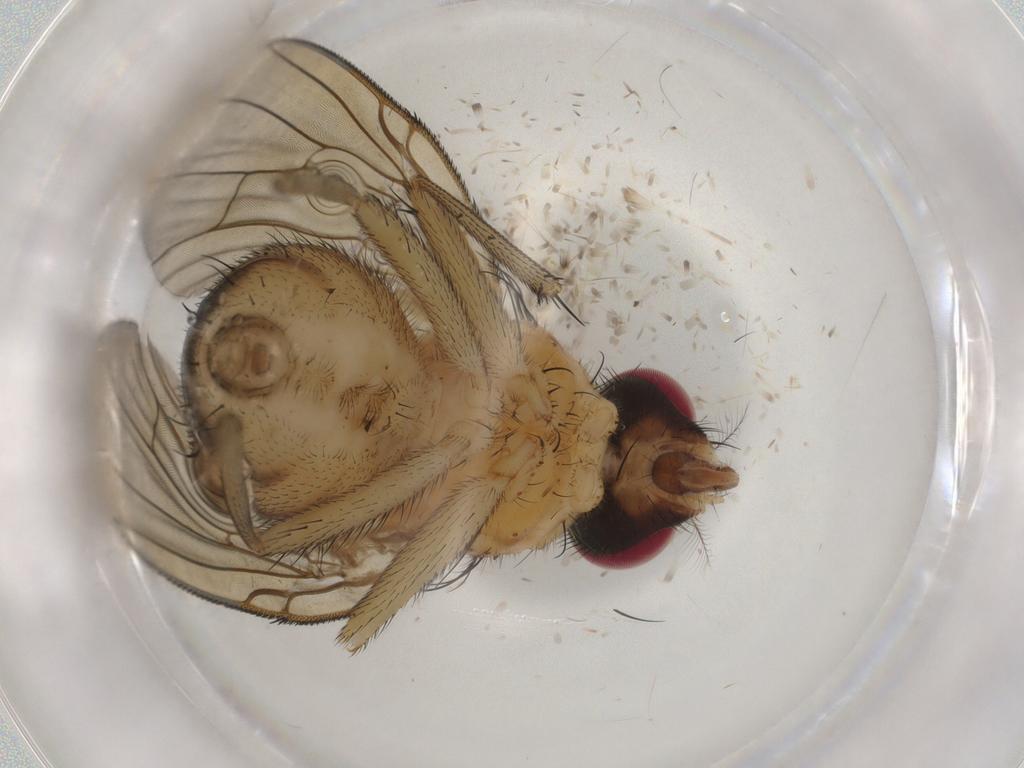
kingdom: Animalia
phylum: Arthropoda
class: Insecta
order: Diptera
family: Muscidae
